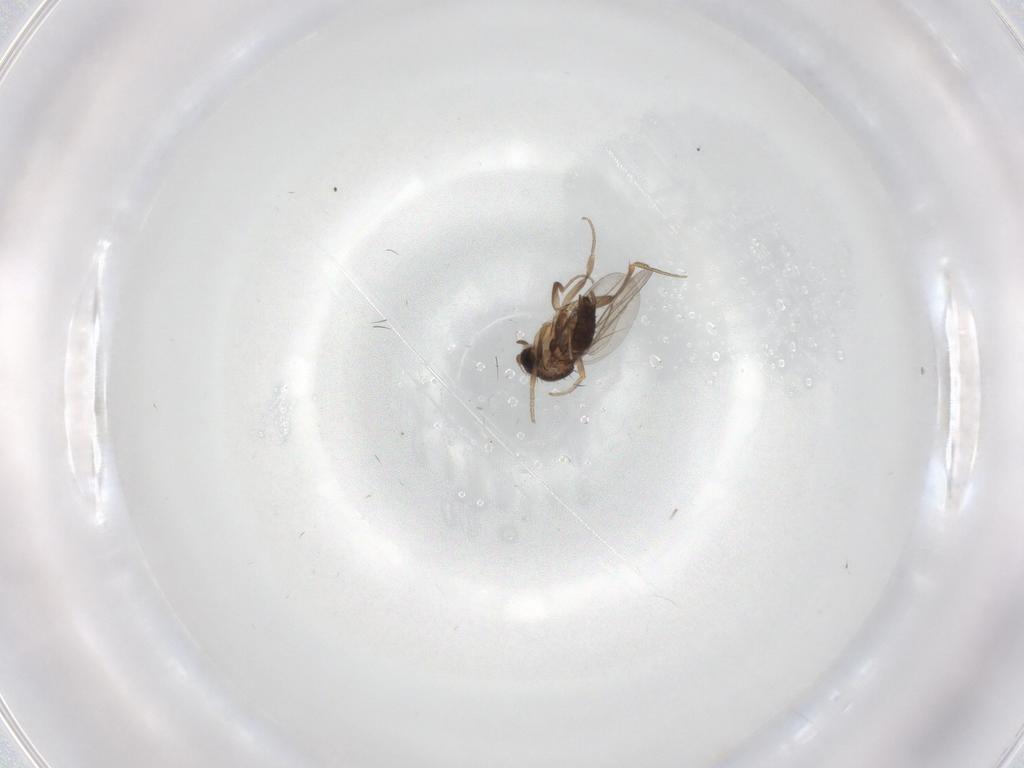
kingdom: Animalia
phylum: Arthropoda
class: Insecta
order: Diptera
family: Phoridae
